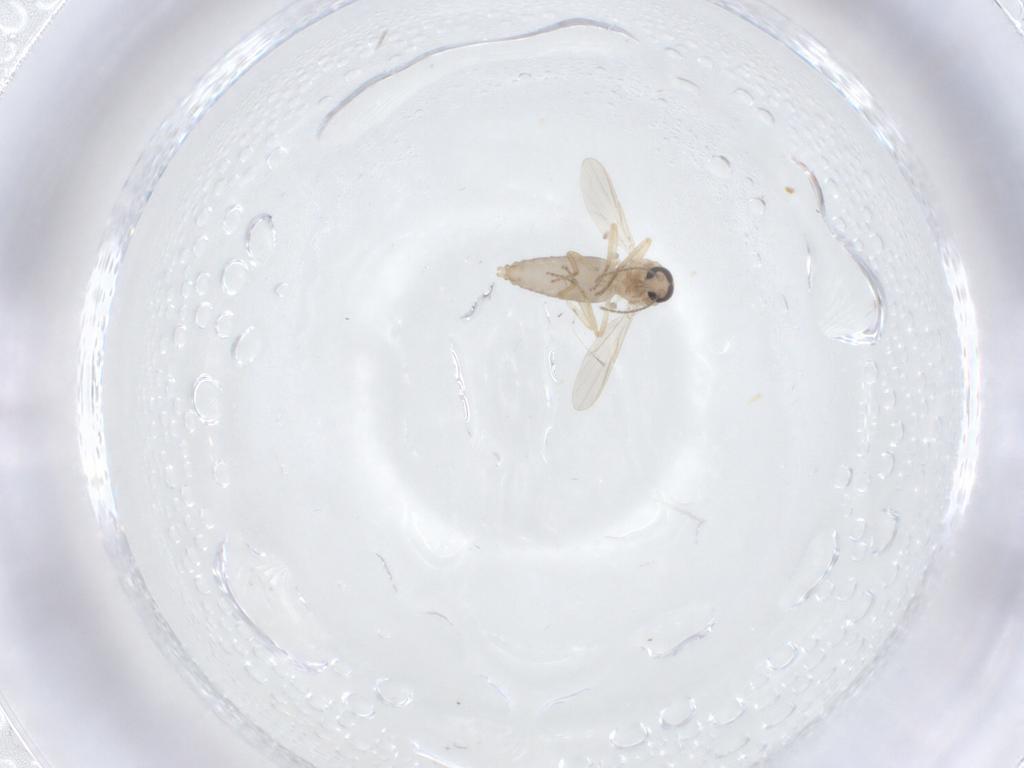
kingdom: Animalia
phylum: Arthropoda
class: Insecta
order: Diptera
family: Ceratopogonidae
